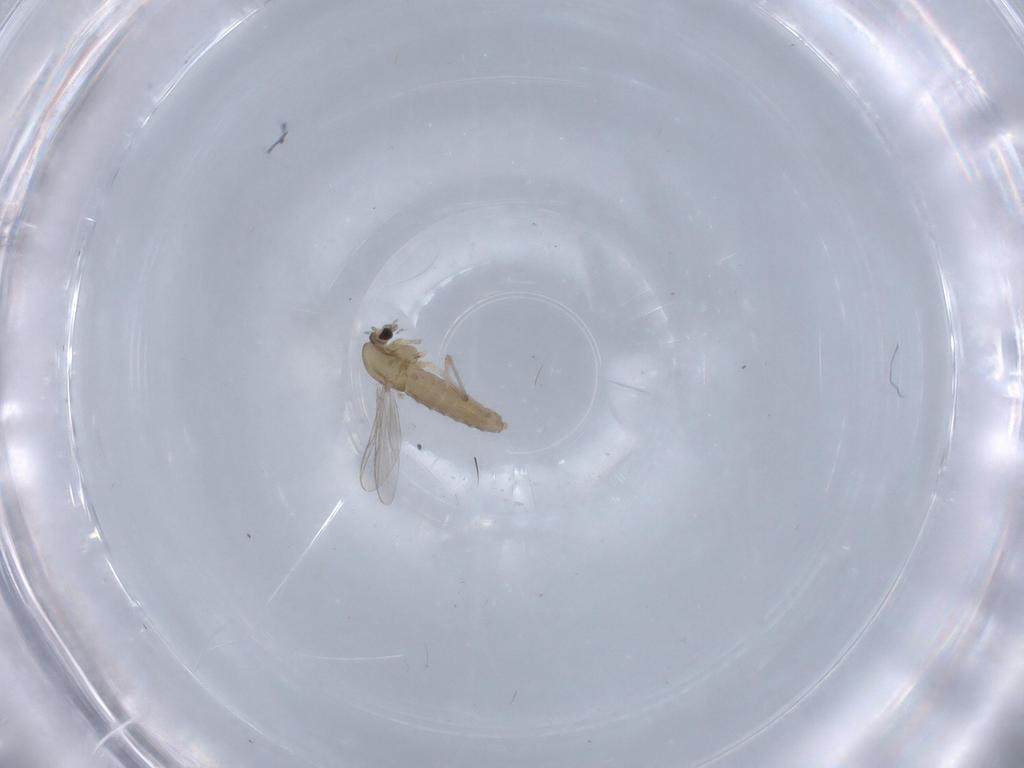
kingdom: Animalia
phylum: Arthropoda
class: Insecta
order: Diptera
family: Chironomidae
